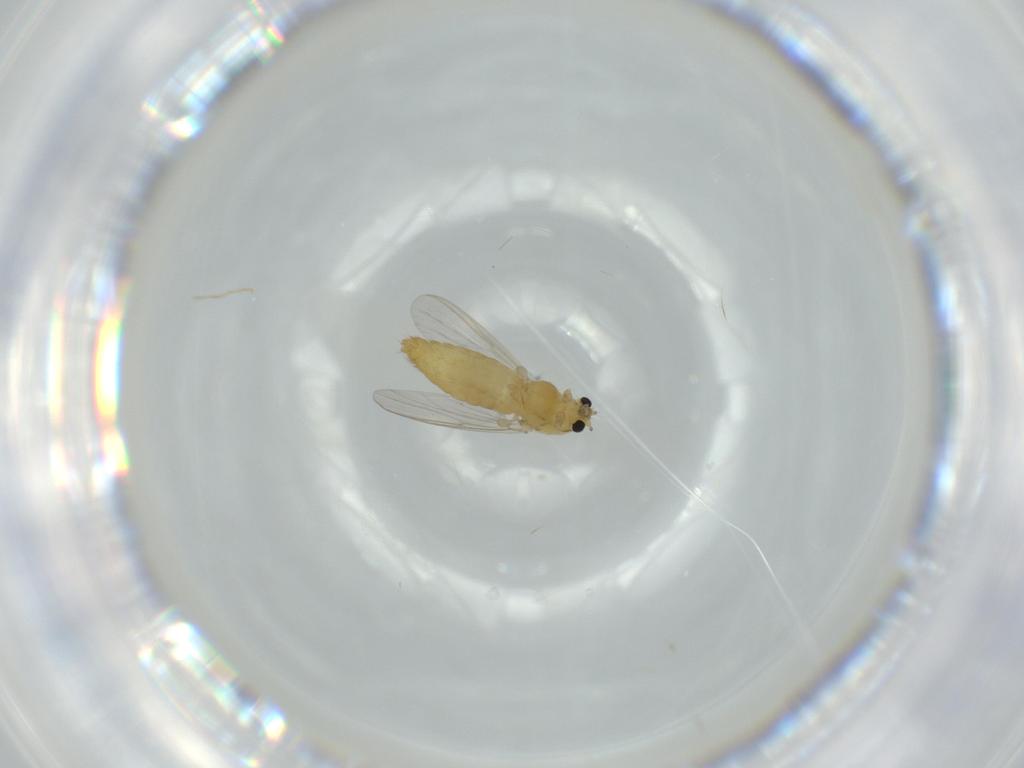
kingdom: Animalia
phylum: Arthropoda
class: Insecta
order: Diptera
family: Chironomidae
